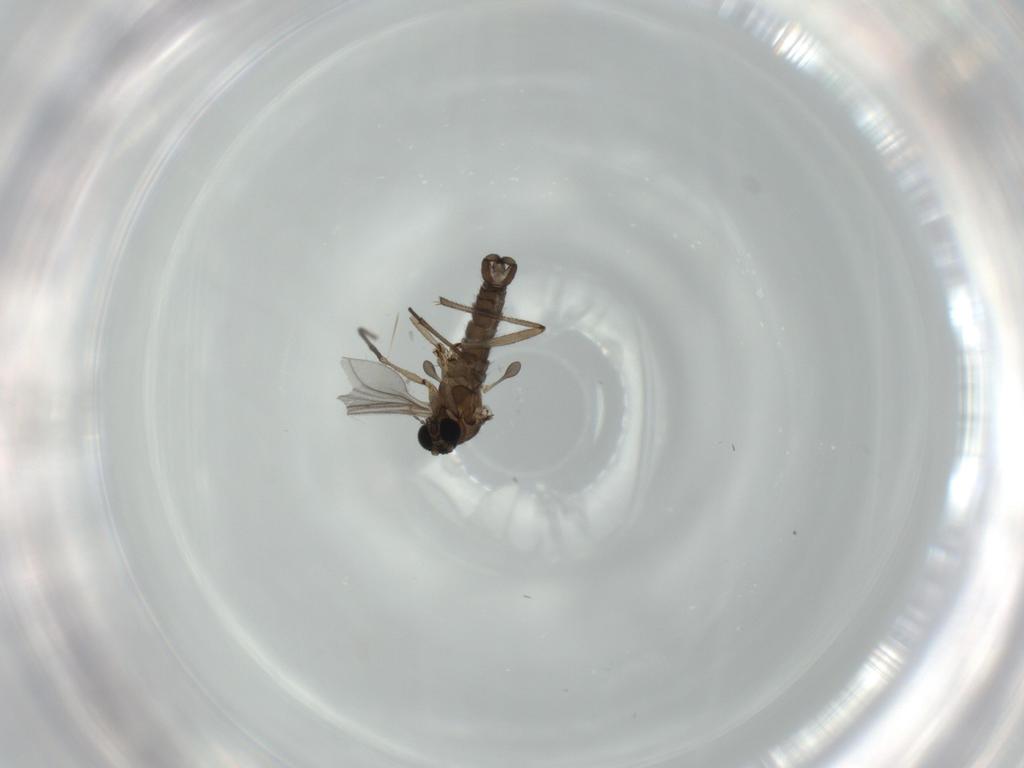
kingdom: Animalia
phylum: Arthropoda
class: Insecta
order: Diptera
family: Sciaridae
